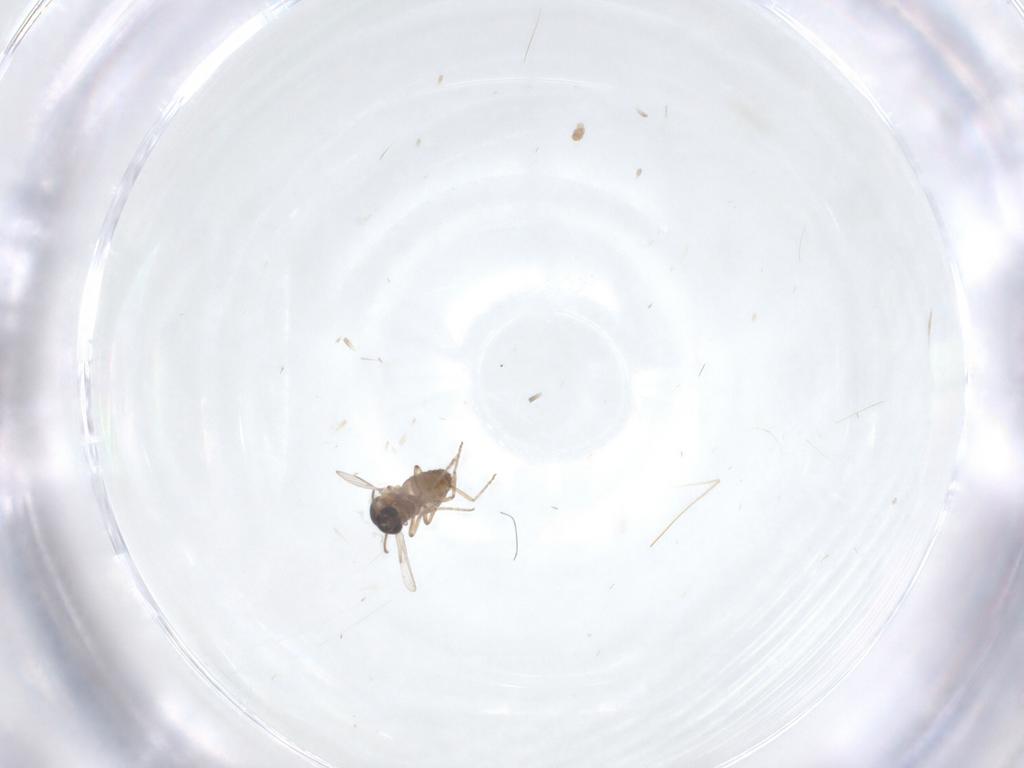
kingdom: Animalia
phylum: Arthropoda
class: Insecta
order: Diptera
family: Ceratopogonidae
